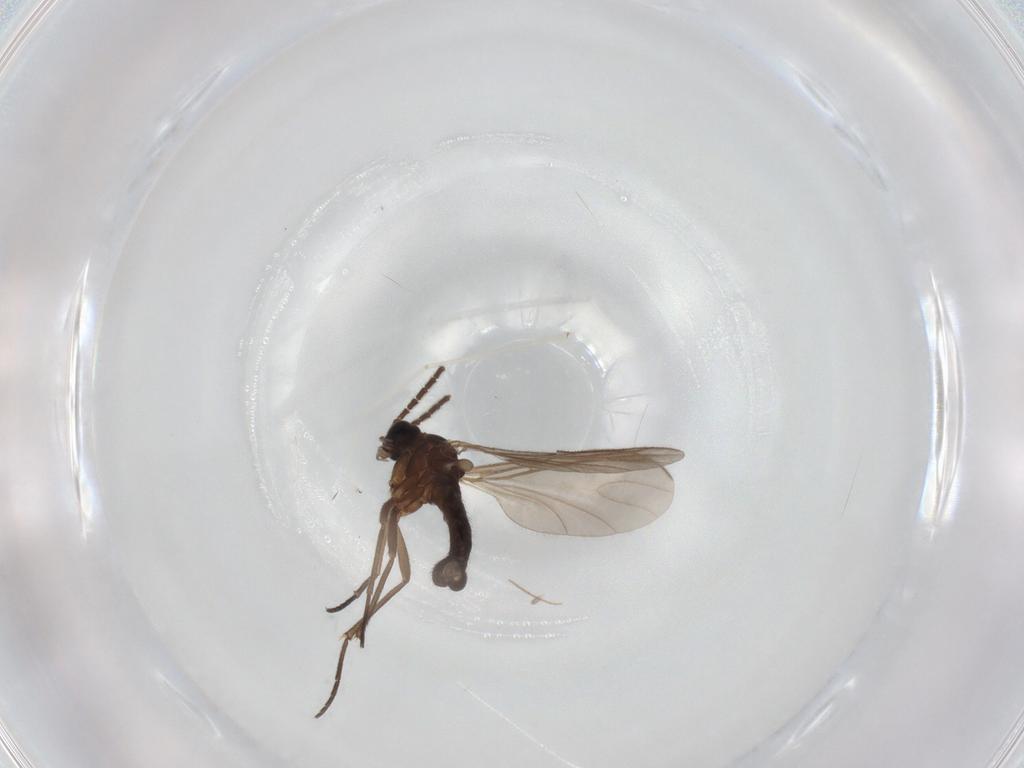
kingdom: Animalia
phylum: Arthropoda
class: Insecta
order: Diptera
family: Sciaridae
